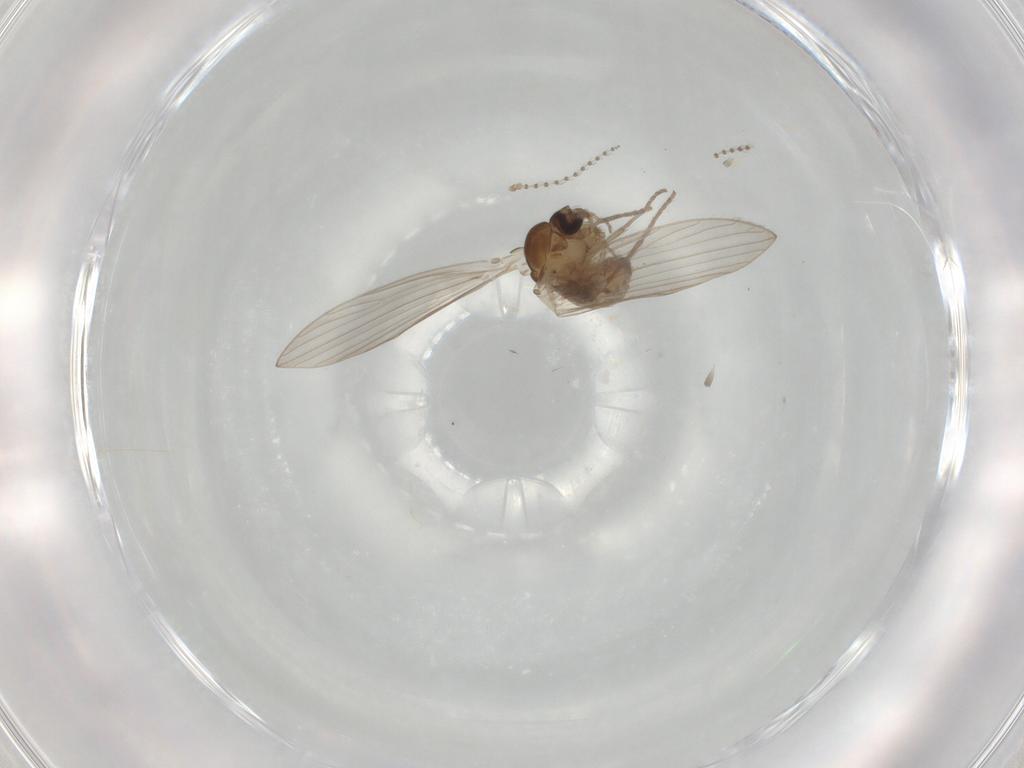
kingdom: Animalia
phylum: Arthropoda
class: Insecta
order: Diptera
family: Psychodidae
